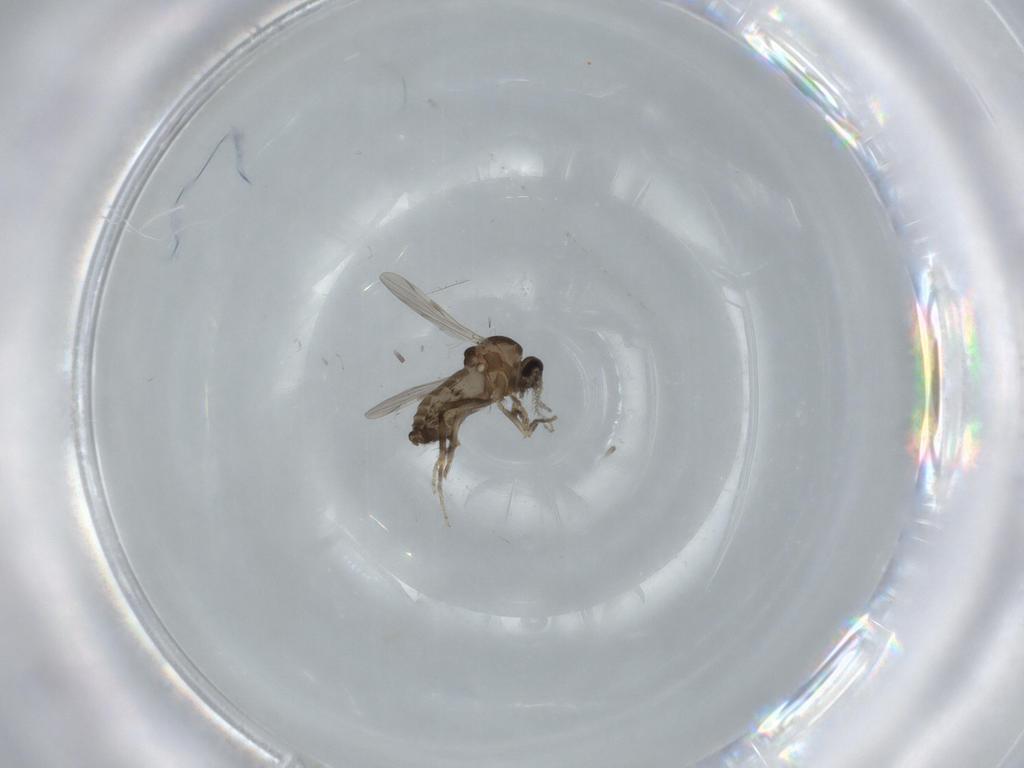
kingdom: Animalia
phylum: Arthropoda
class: Insecta
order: Diptera
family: Ceratopogonidae
